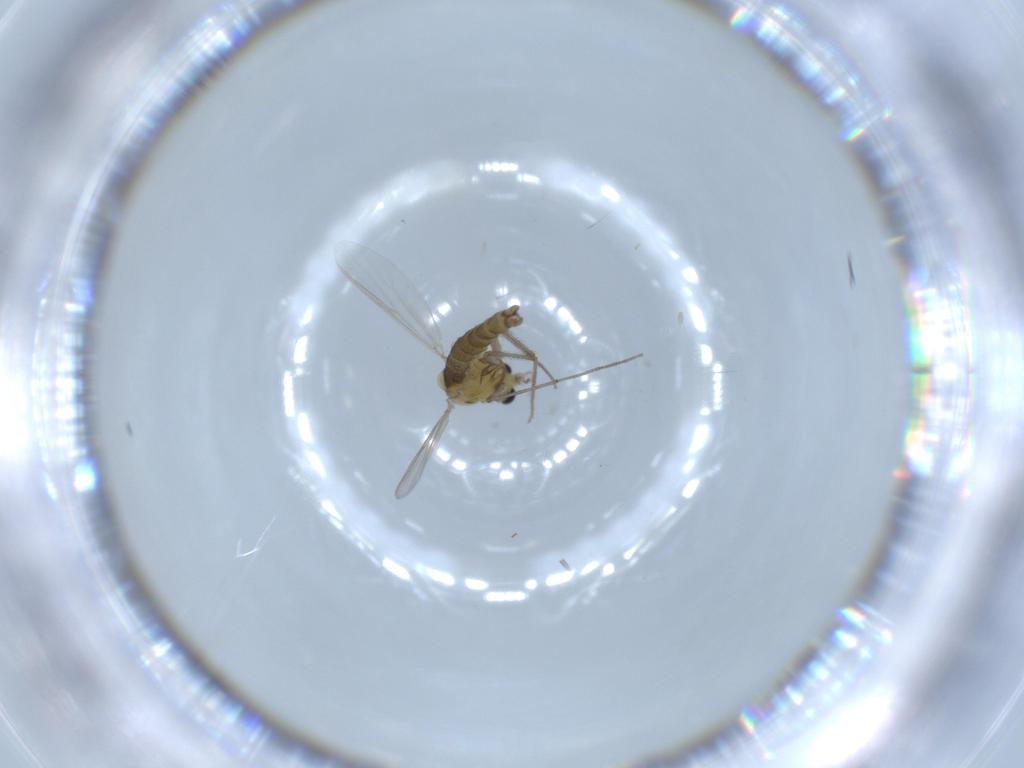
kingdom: Animalia
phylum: Arthropoda
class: Insecta
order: Diptera
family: Chironomidae
